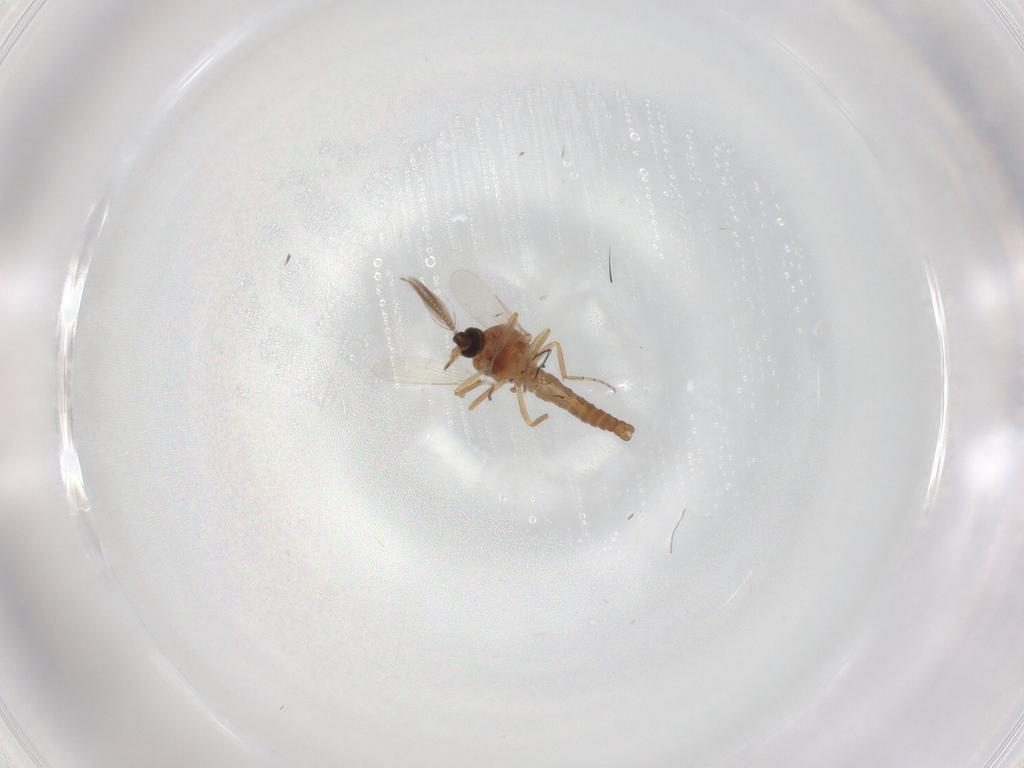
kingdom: Animalia
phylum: Arthropoda
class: Insecta
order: Diptera
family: Ceratopogonidae
